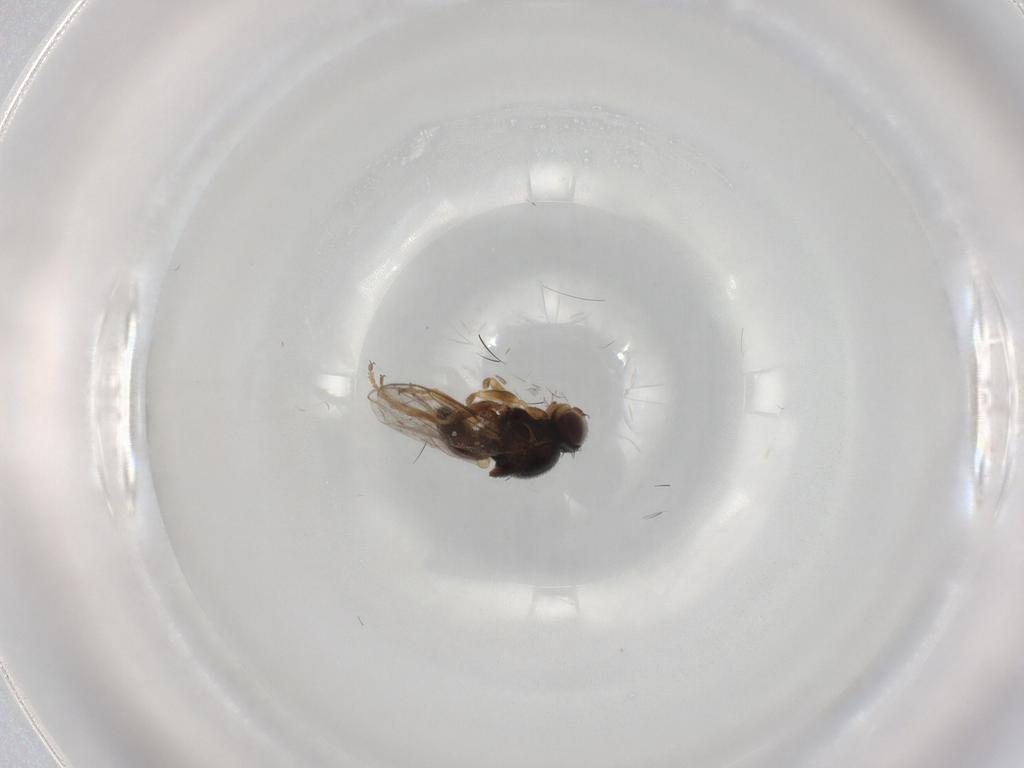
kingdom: Animalia
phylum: Arthropoda
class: Insecta
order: Diptera
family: Chloropidae
